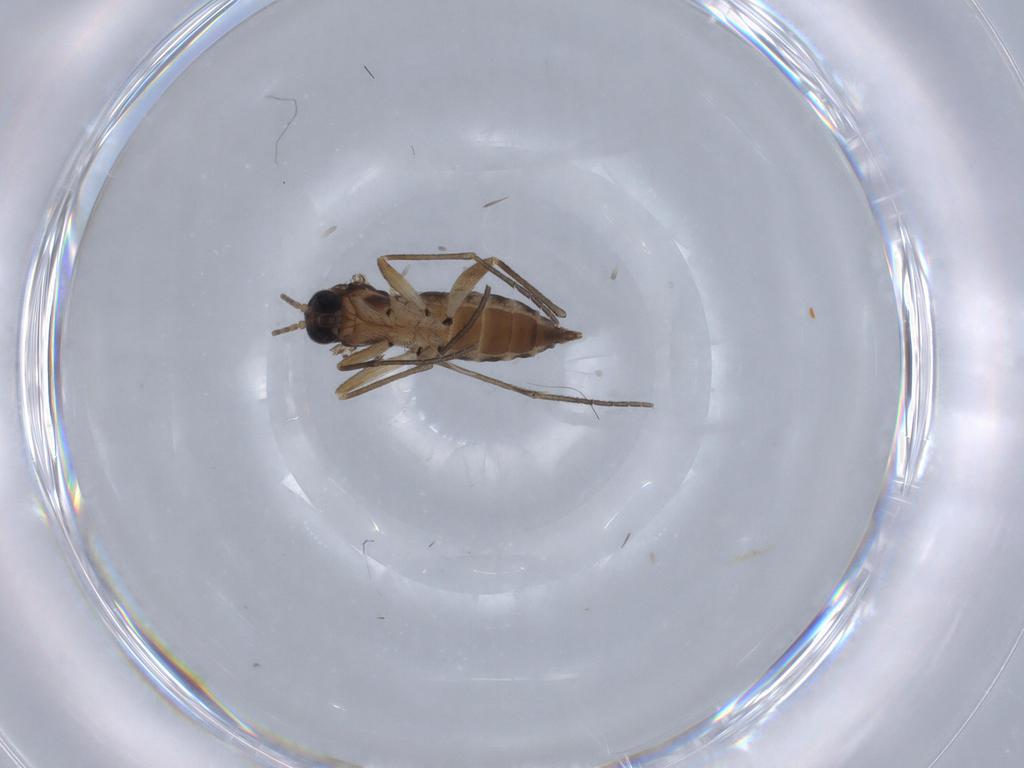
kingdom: Animalia
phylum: Arthropoda
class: Insecta
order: Diptera
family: Sciaridae
